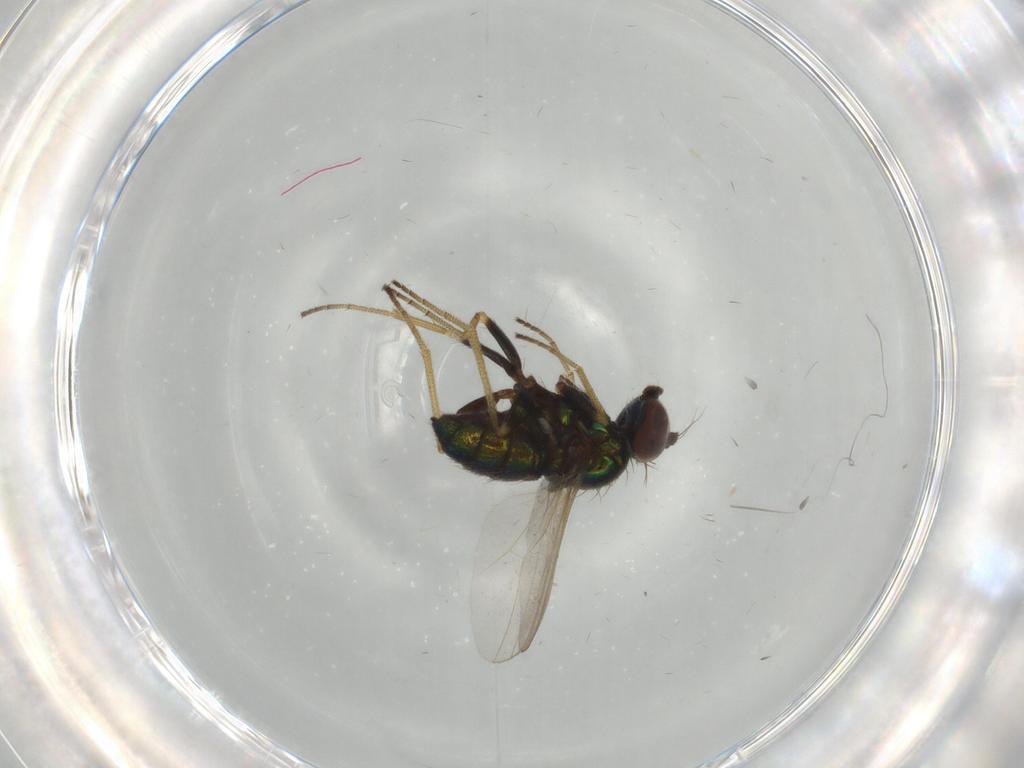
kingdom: Animalia
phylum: Arthropoda
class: Insecta
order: Diptera
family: Dolichopodidae
